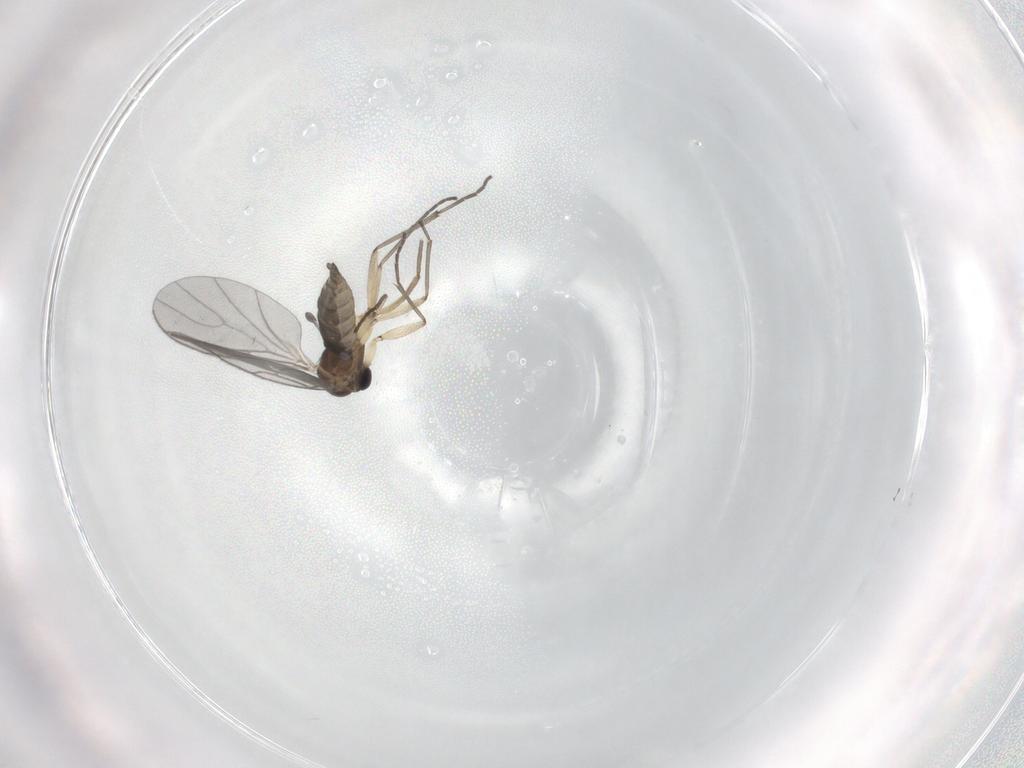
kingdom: Animalia
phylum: Arthropoda
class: Insecta
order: Diptera
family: Sciaridae
